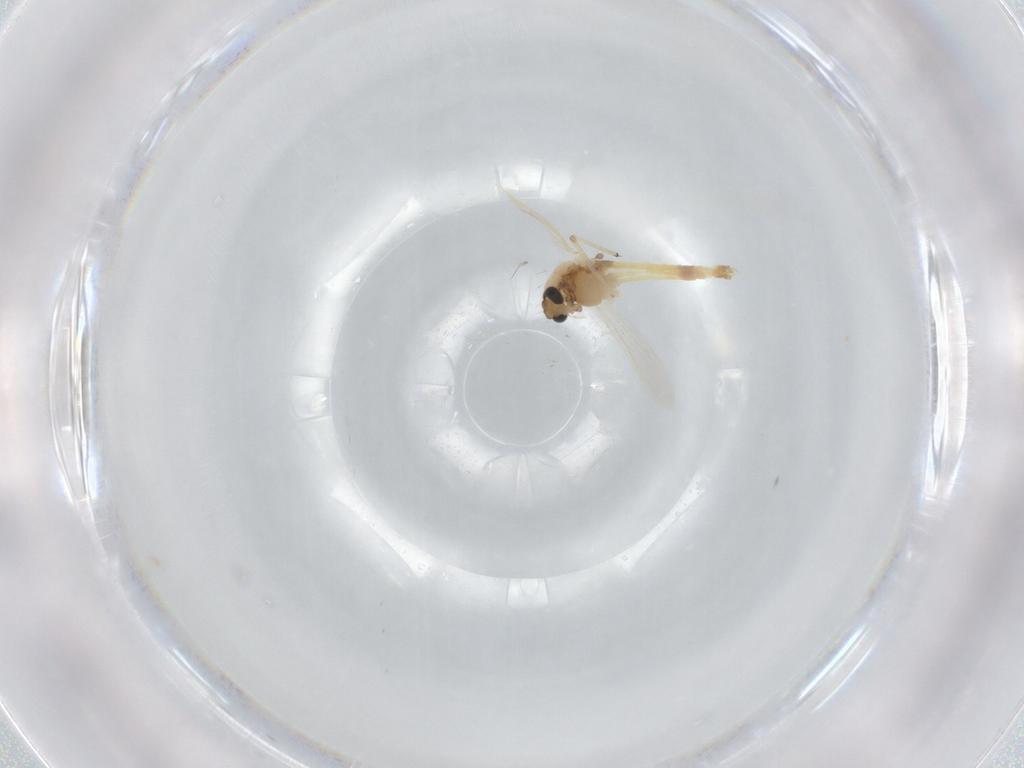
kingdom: Animalia
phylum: Arthropoda
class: Insecta
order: Diptera
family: Chironomidae
